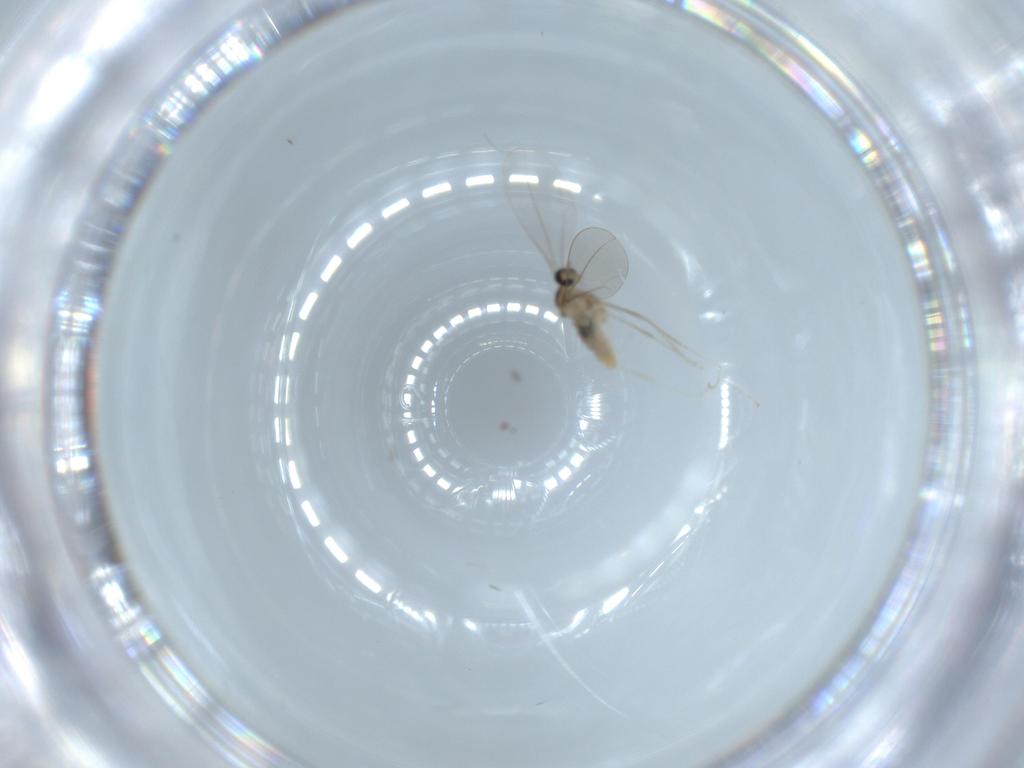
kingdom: Animalia
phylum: Arthropoda
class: Insecta
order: Diptera
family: Cecidomyiidae
